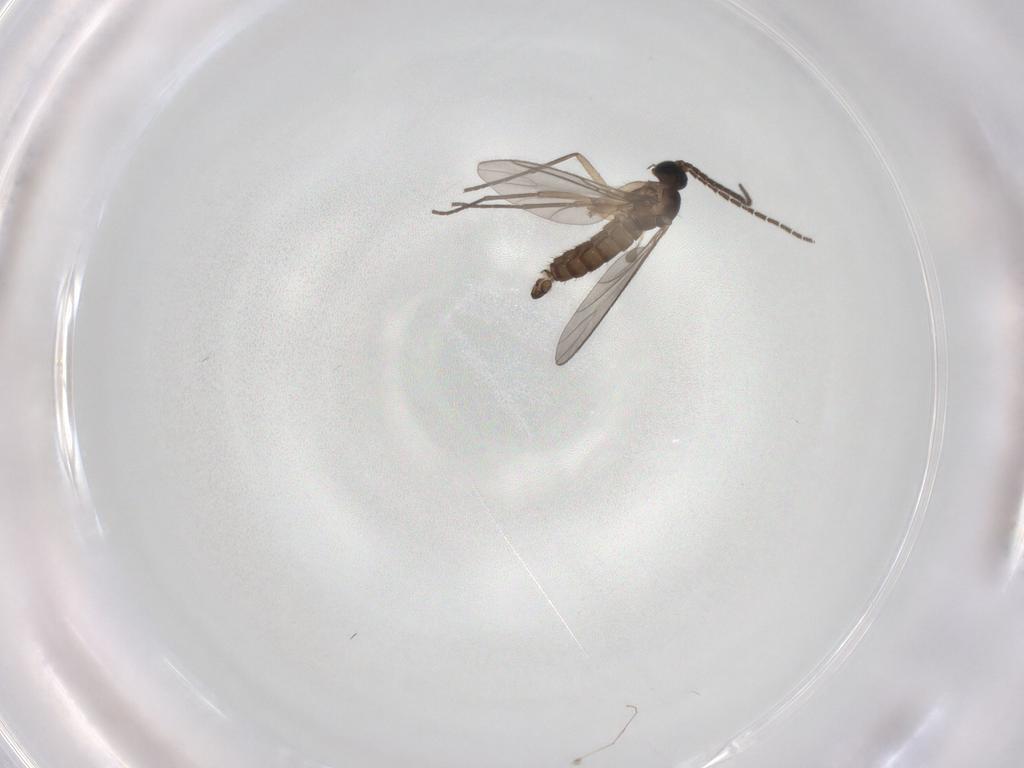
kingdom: Animalia
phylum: Arthropoda
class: Insecta
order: Diptera
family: Cecidomyiidae
